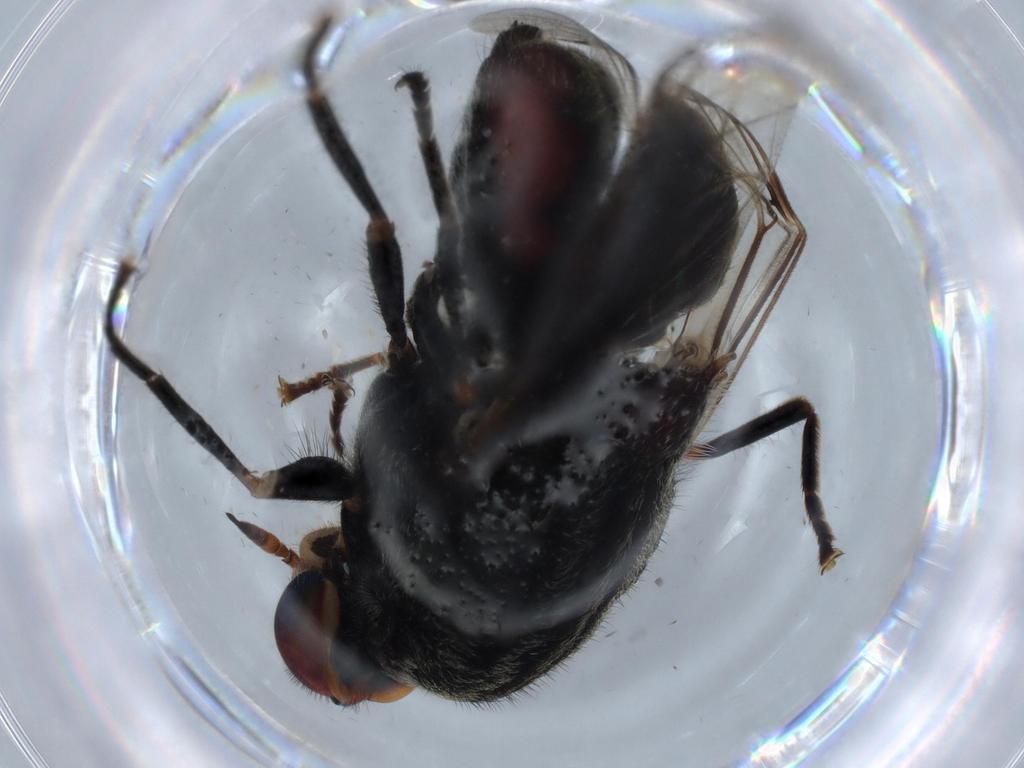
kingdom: Animalia
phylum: Arthropoda
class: Insecta
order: Diptera
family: Sciaridae
